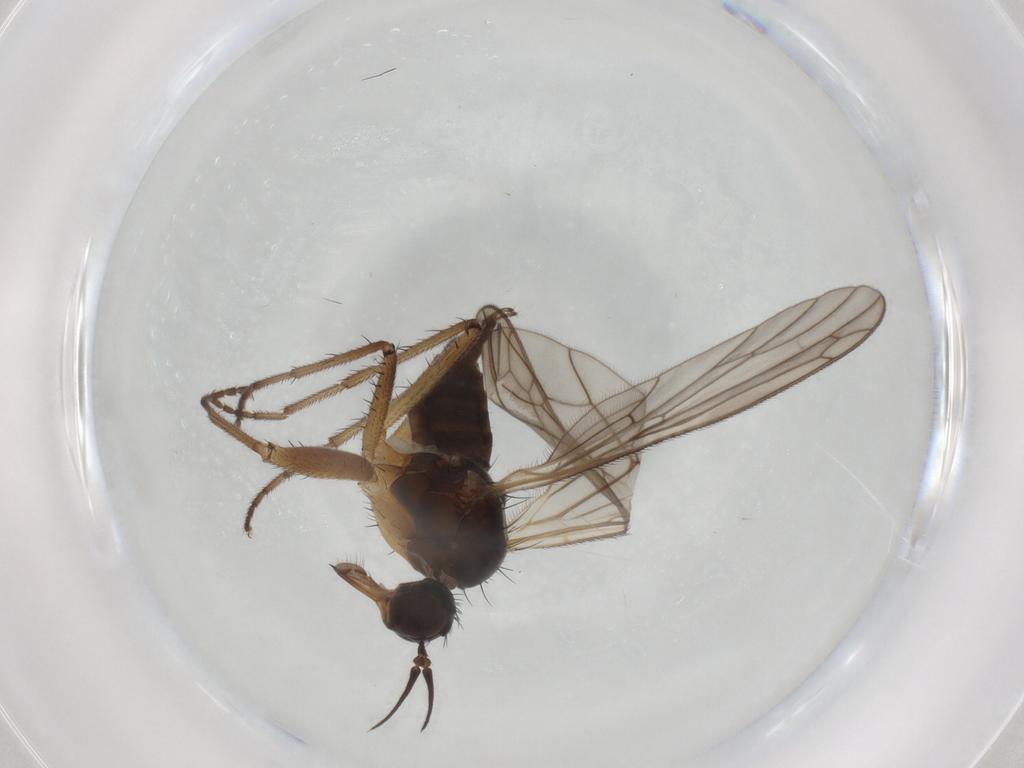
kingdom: Animalia
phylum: Arthropoda
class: Insecta
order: Diptera
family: Empididae
